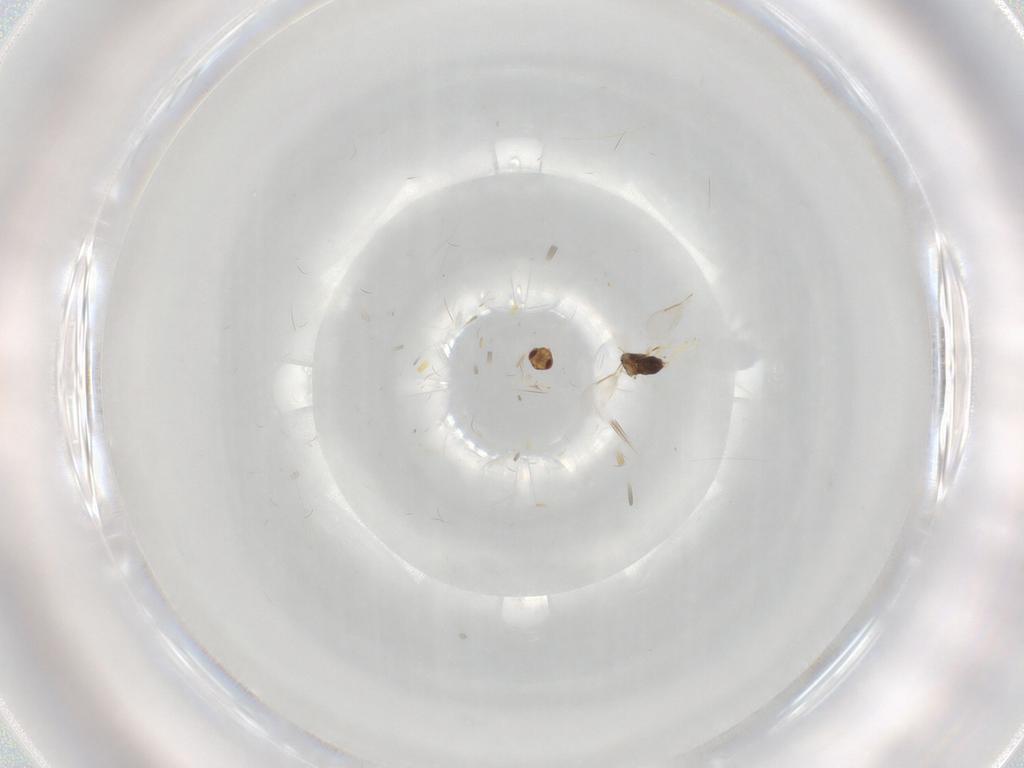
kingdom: Animalia
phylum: Arthropoda
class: Insecta
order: Hymenoptera
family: Aphelinidae
